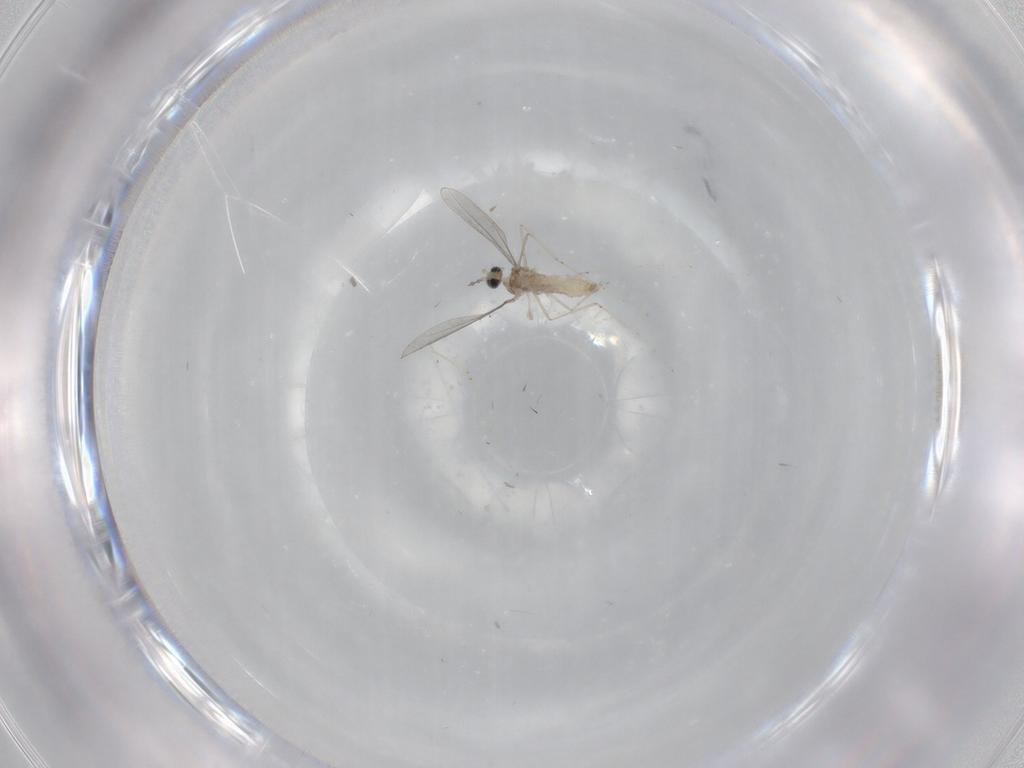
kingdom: Animalia
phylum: Arthropoda
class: Insecta
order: Diptera
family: Cecidomyiidae
